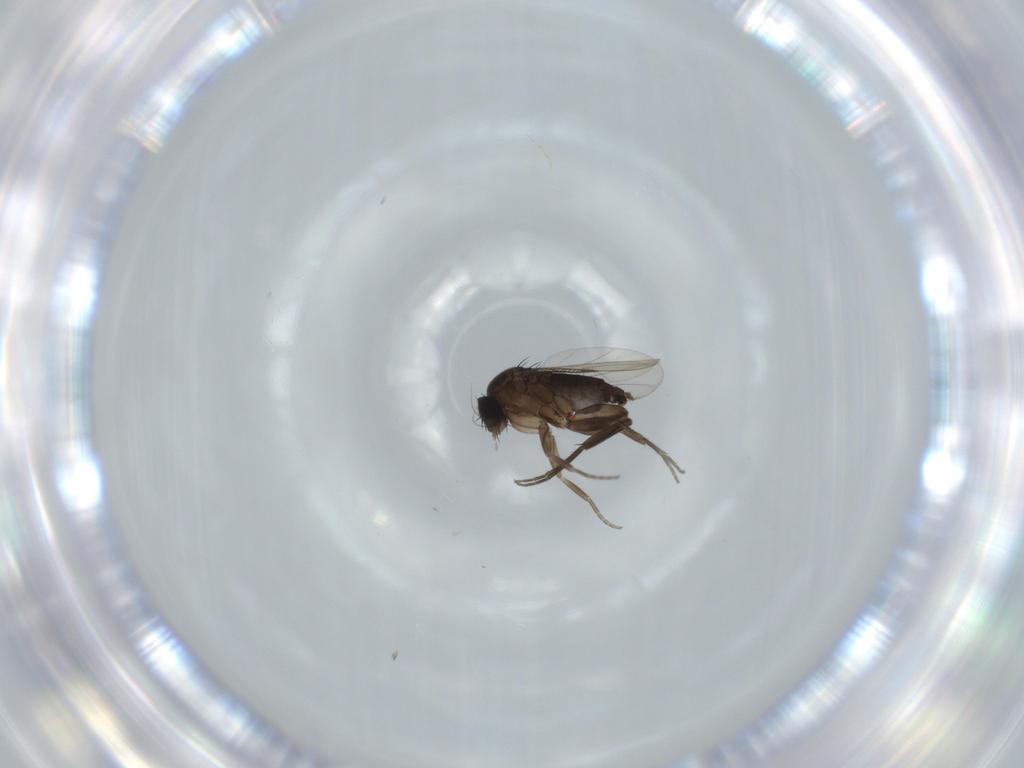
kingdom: Animalia
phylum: Arthropoda
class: Insecta
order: Diptera
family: Phoridae
